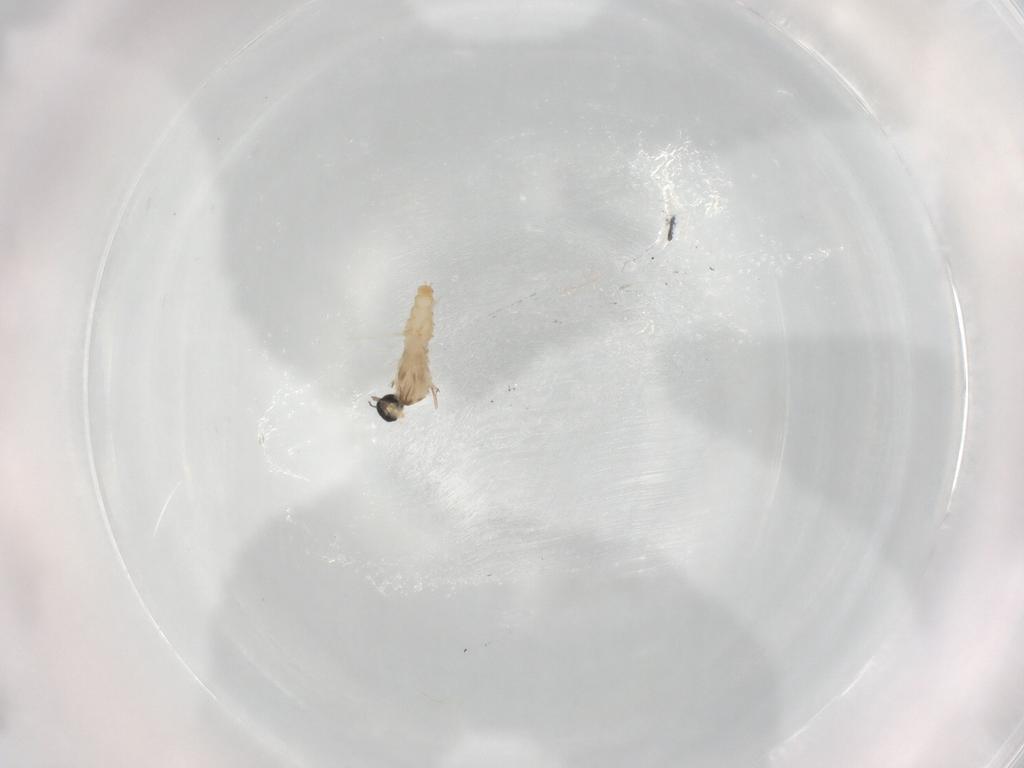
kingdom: Animalia
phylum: Arthropoda
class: Insecta
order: Diptera
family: Cecidomyiidae
